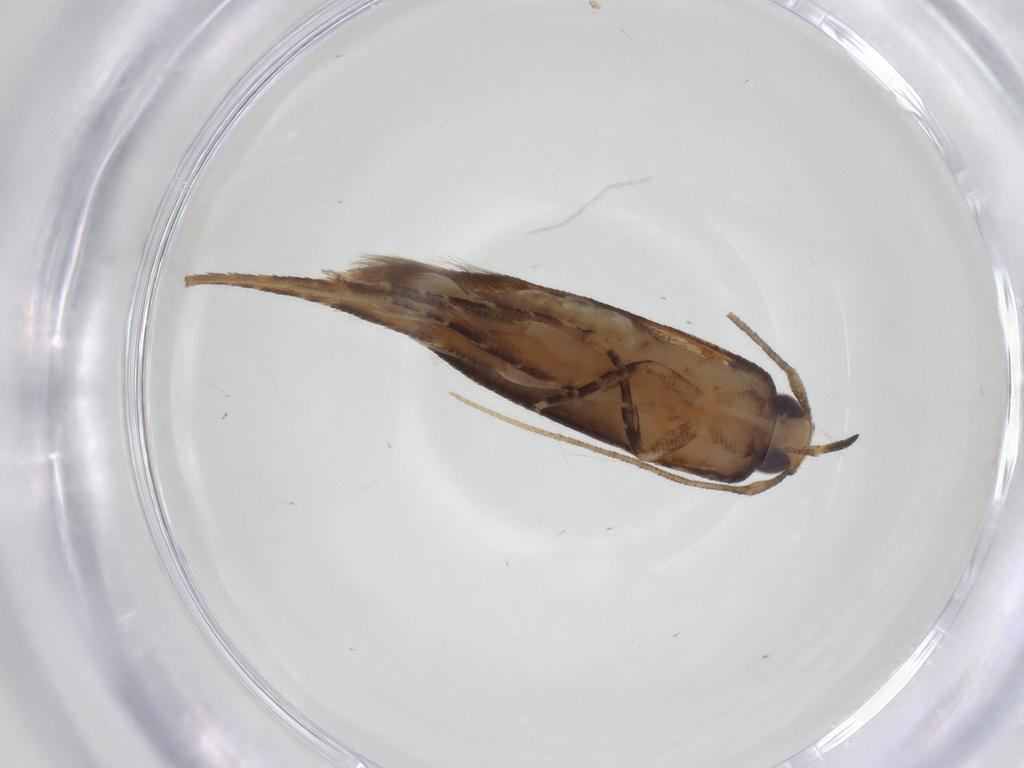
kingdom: Animalia
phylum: Arthropoda
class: Insecta
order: Lepidoptera
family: Cosmopterigidae
